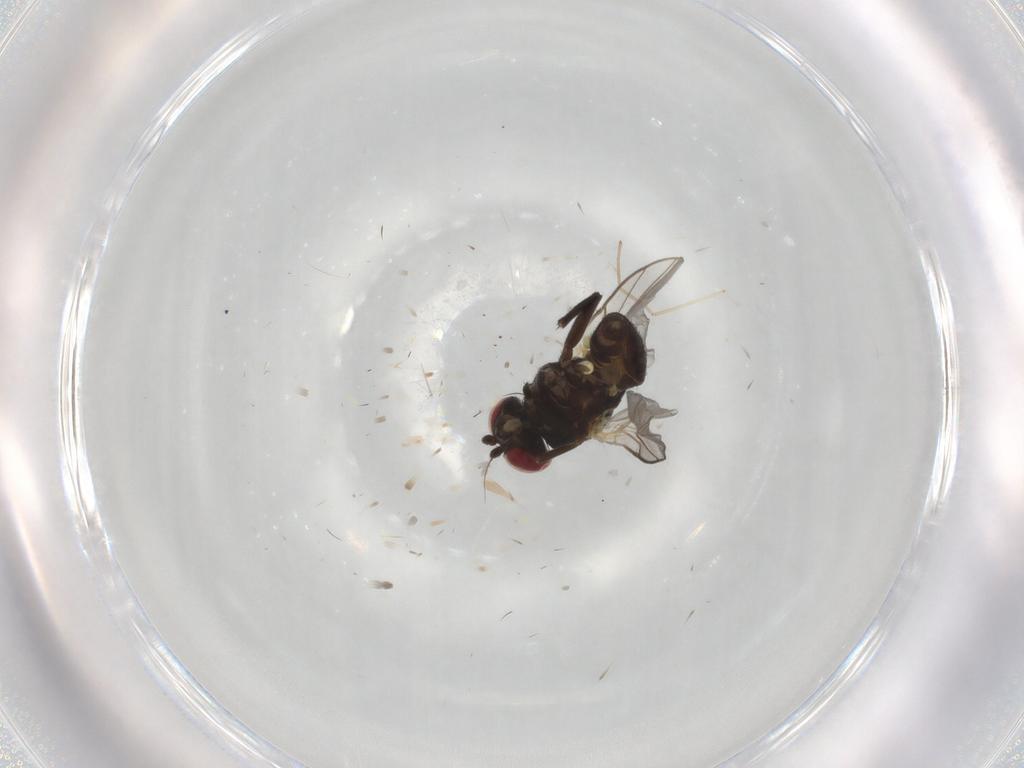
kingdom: Animalia
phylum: Arthropoda
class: Insecta
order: Diptera
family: Agromyzidae
